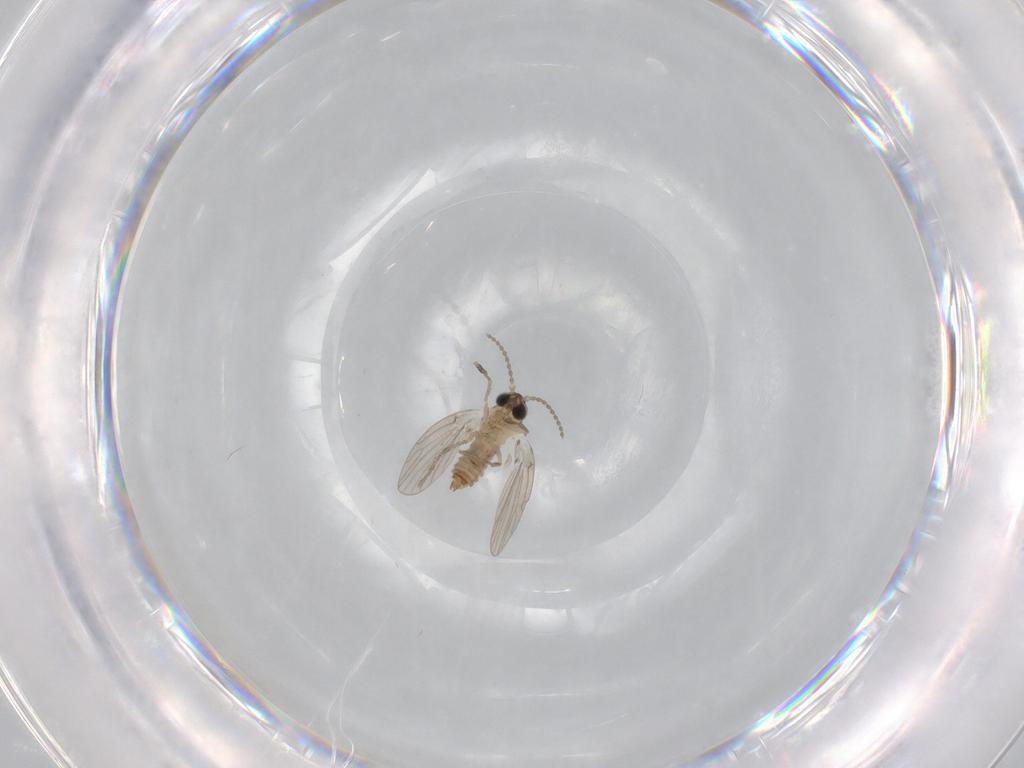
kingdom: Animalia
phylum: Arthropoda
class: Insecta
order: Diptera
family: Psychodidae
